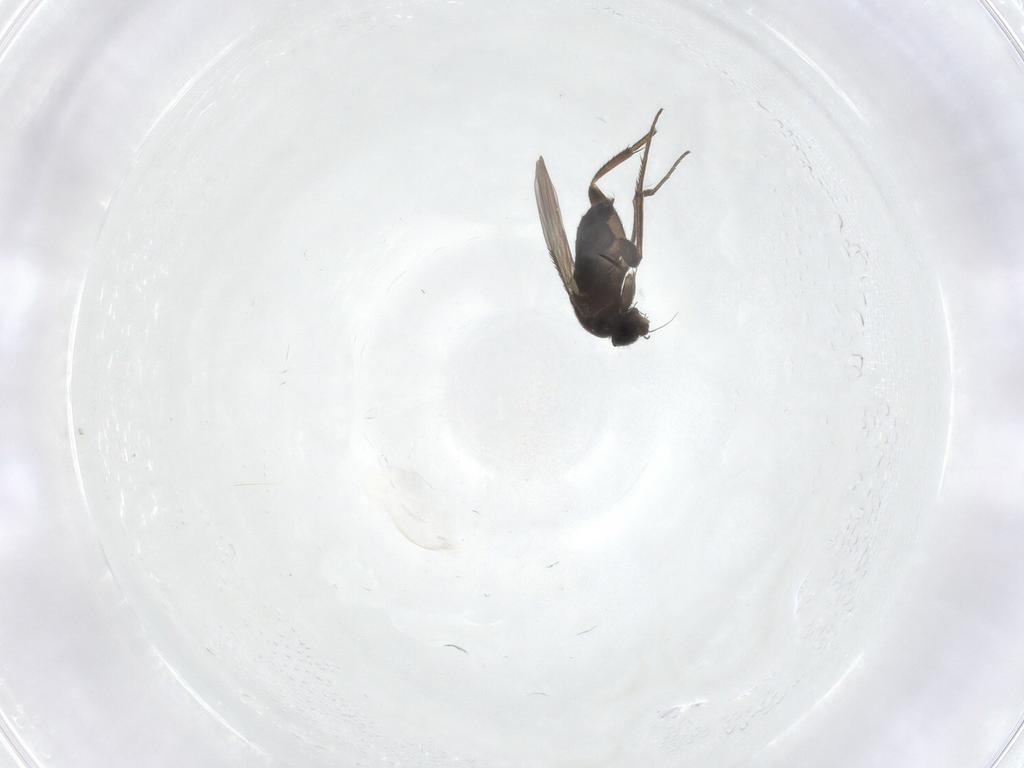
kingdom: Animalia
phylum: Arthropoda
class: Insecta
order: Diptera
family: Phoridae
